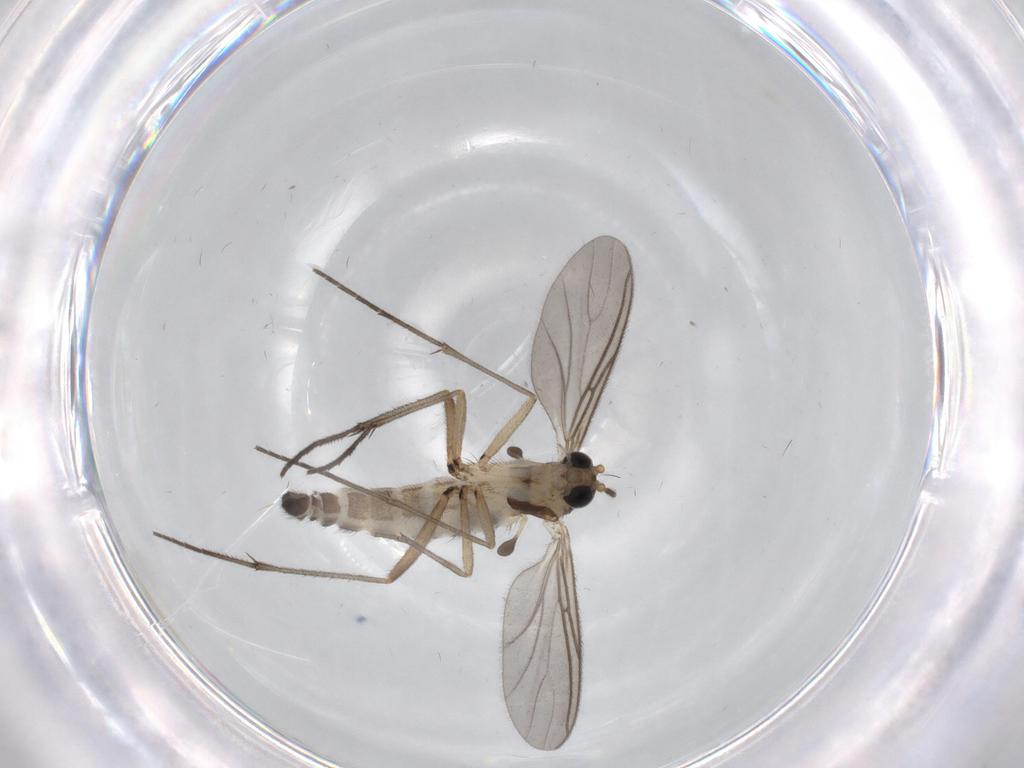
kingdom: Animalia
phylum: Arthropoda
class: Insecta
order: Diptera
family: Sciaridae
